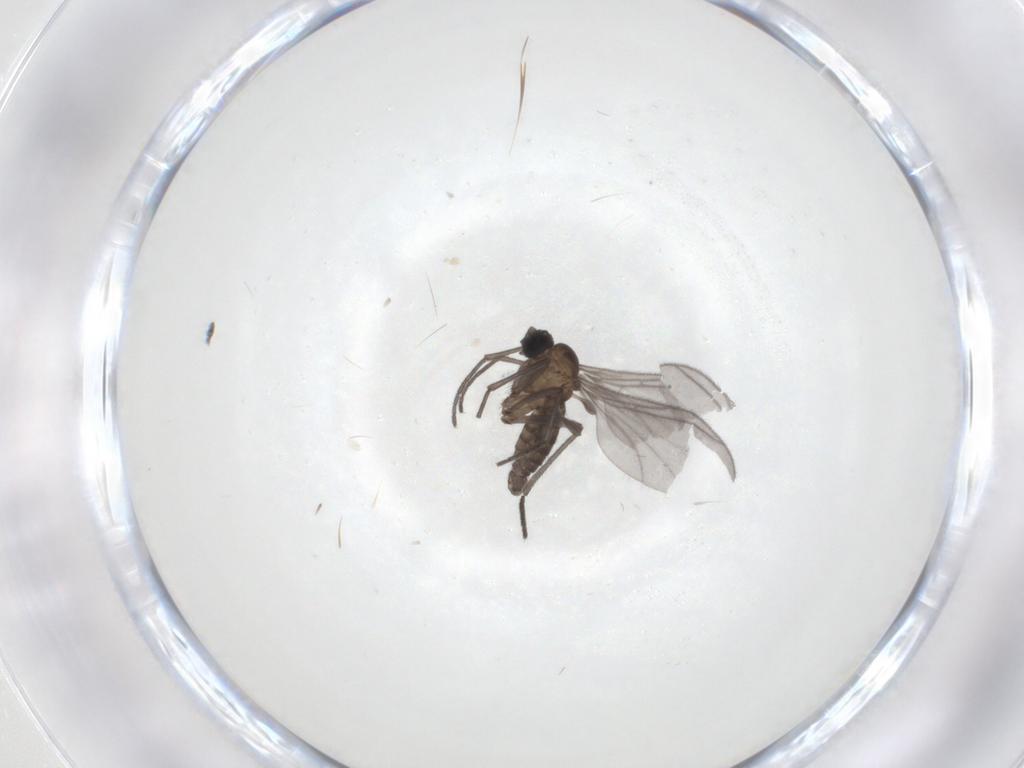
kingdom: Animalia
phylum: Arthropoda
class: Insecta
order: Diptera
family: Sciaridae
